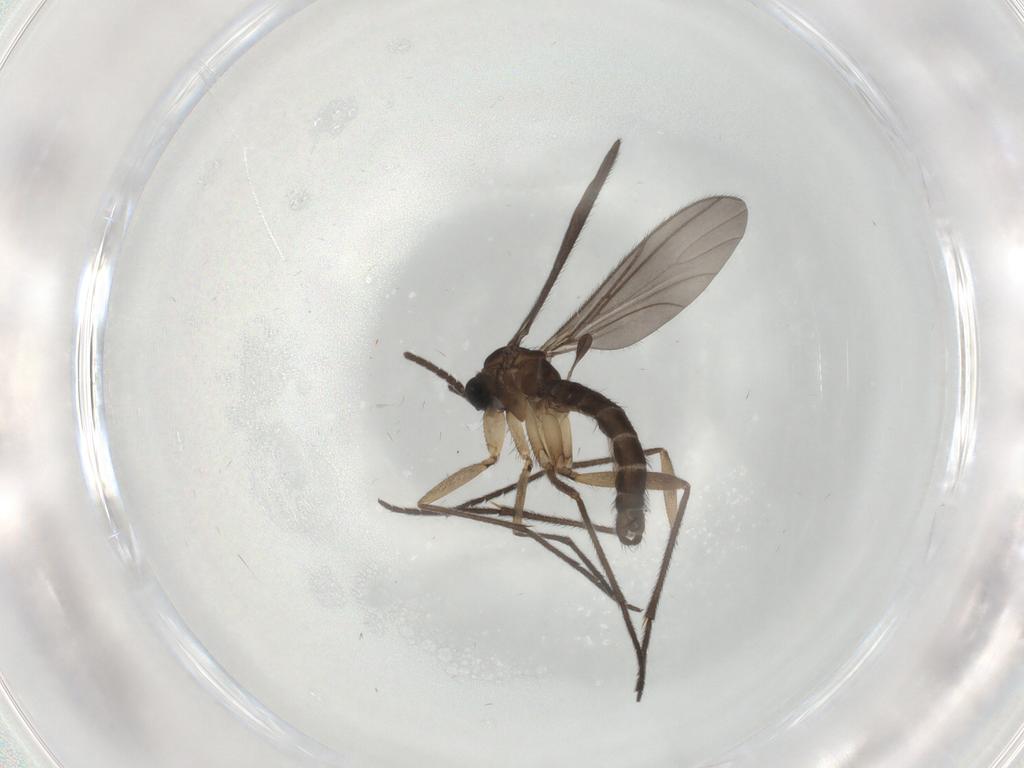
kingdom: Animalia
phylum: Arthropoda
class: Insecta
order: Diptera
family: Sciaridae
